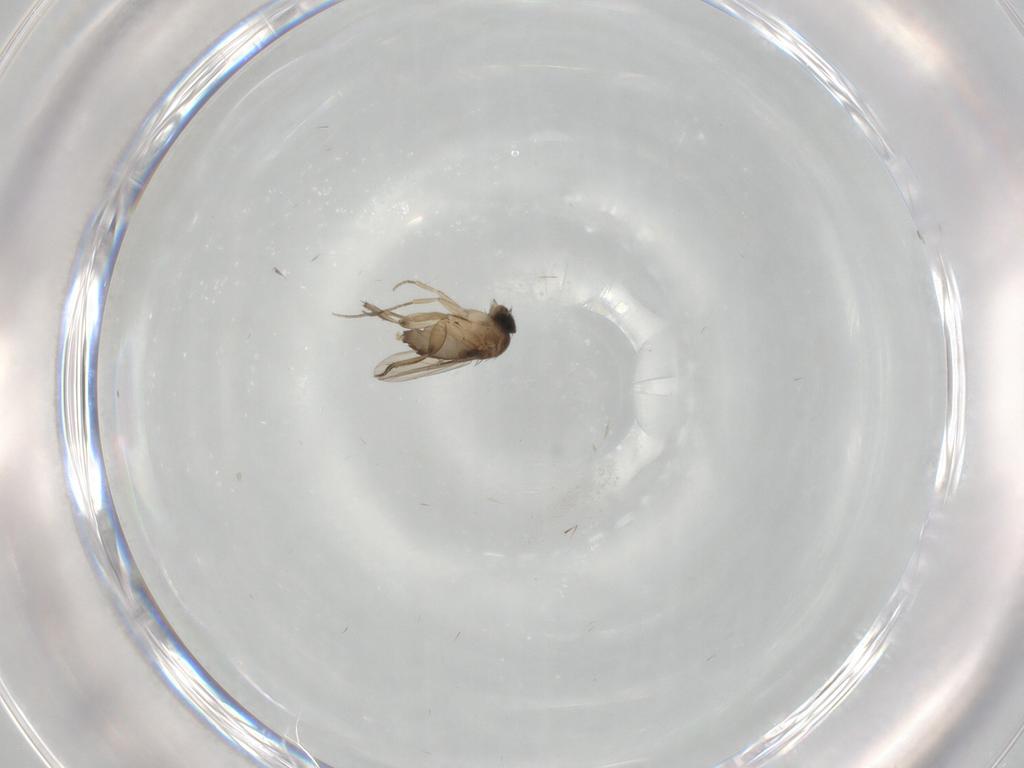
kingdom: Animalia
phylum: Arthropoda
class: Insecta
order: Diptera
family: Phoridae
